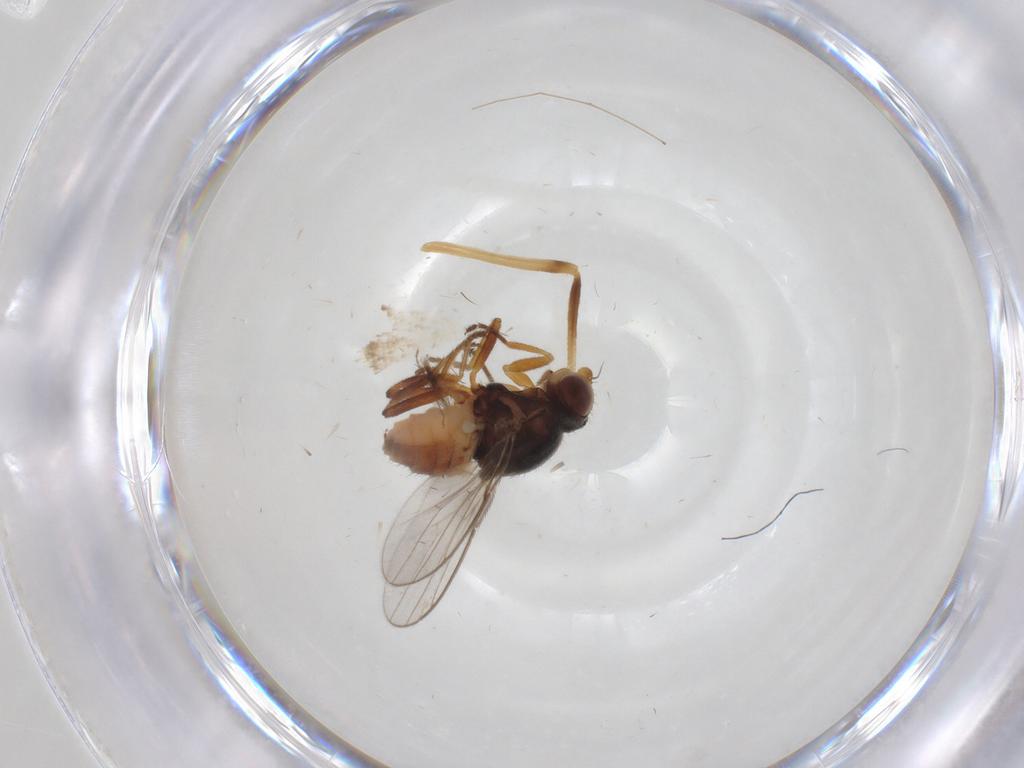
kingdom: Animalia
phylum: Arthropoda
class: Insecta
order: Diptera
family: Chironomidae
